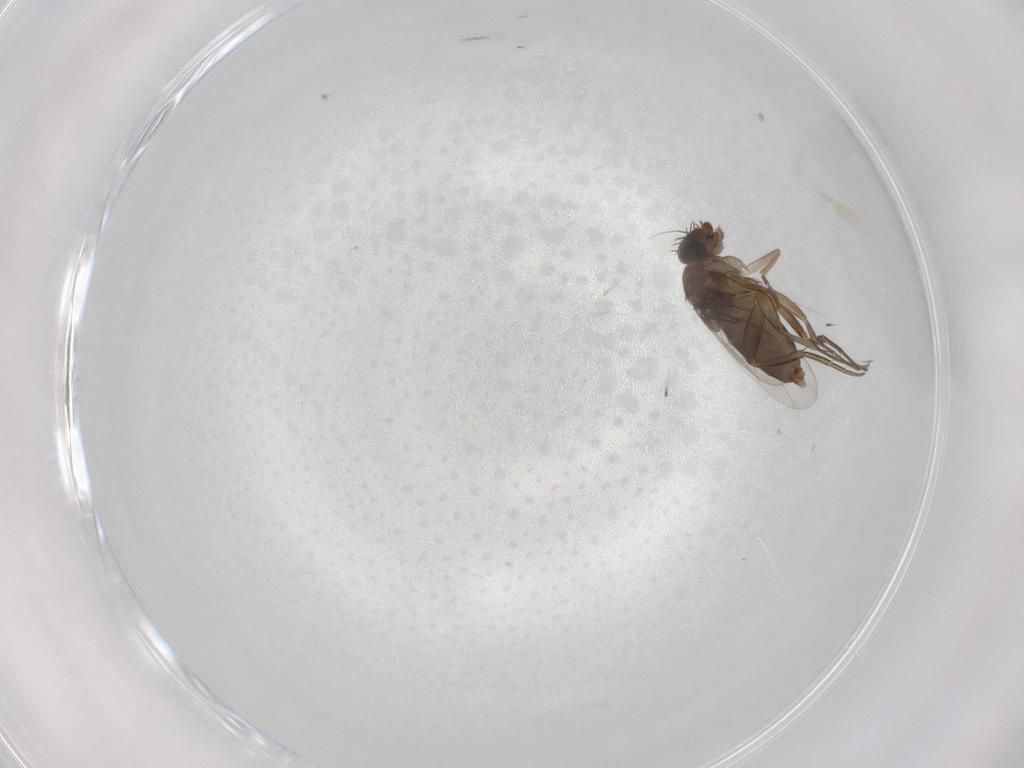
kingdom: Animalia
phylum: Arthropoda
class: Insecta
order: Diptera
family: Phoridae
